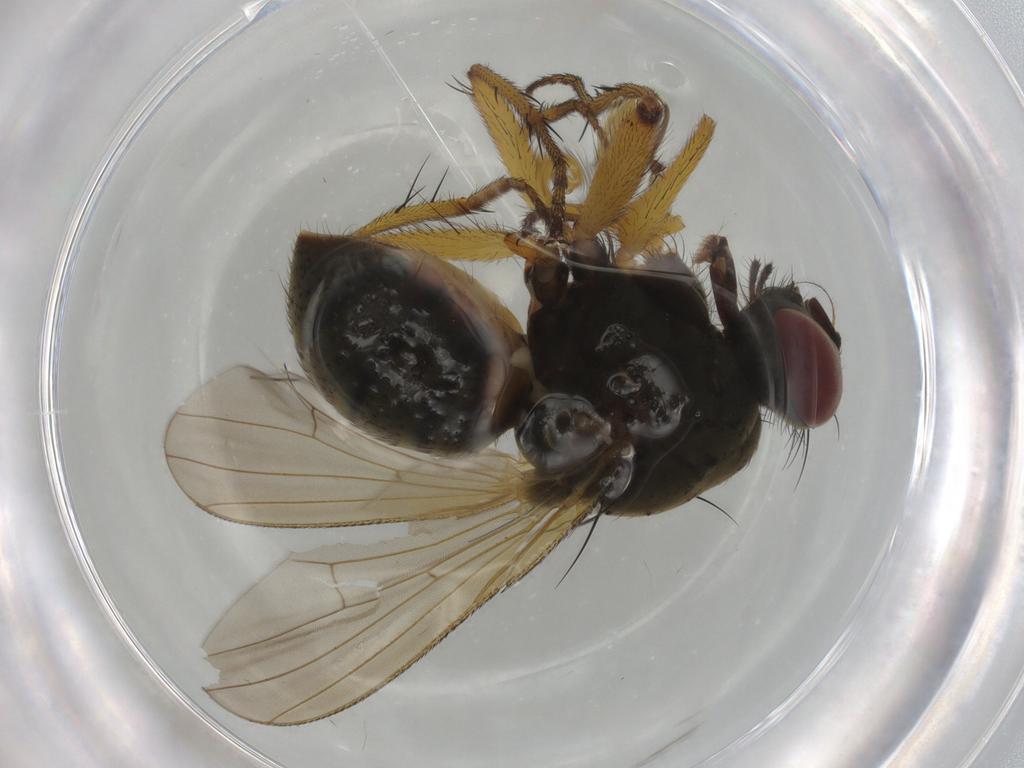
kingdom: Animalia
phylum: Arthropoda
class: Insecta
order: Diptera
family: Muscidae
